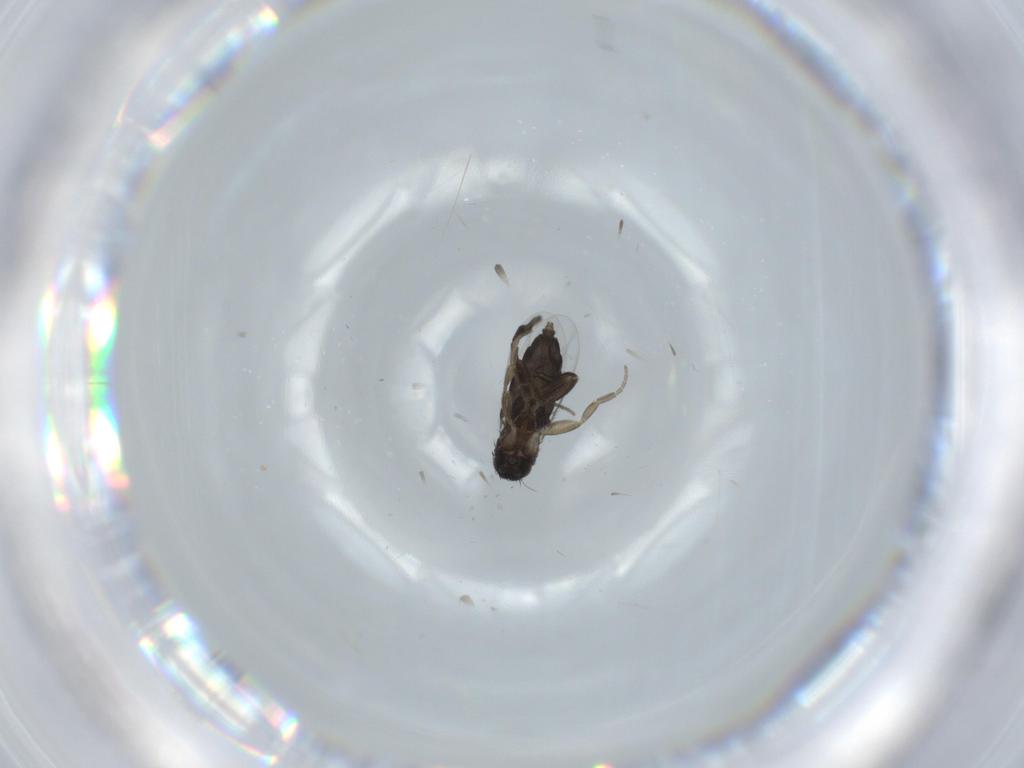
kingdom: Animalia
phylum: Arthropoda
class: Insecta
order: Diptera
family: Phoridae
